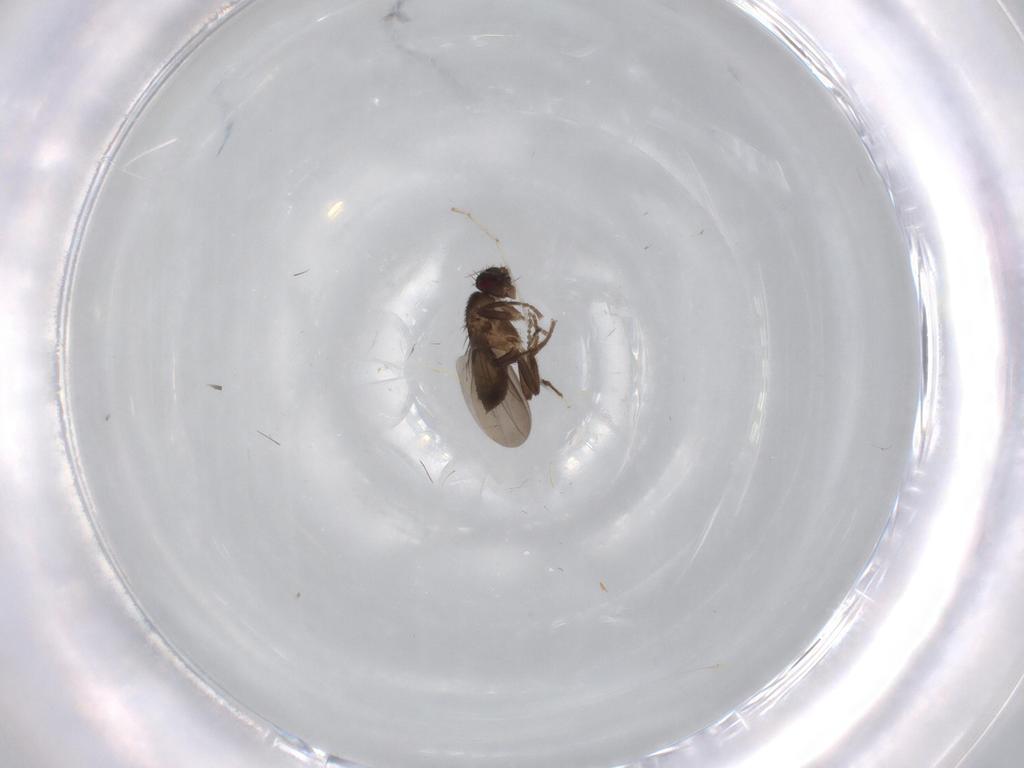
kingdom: Animalia
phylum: Arthropoda
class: Insecta
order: Diptera
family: Sphaeroceridae
